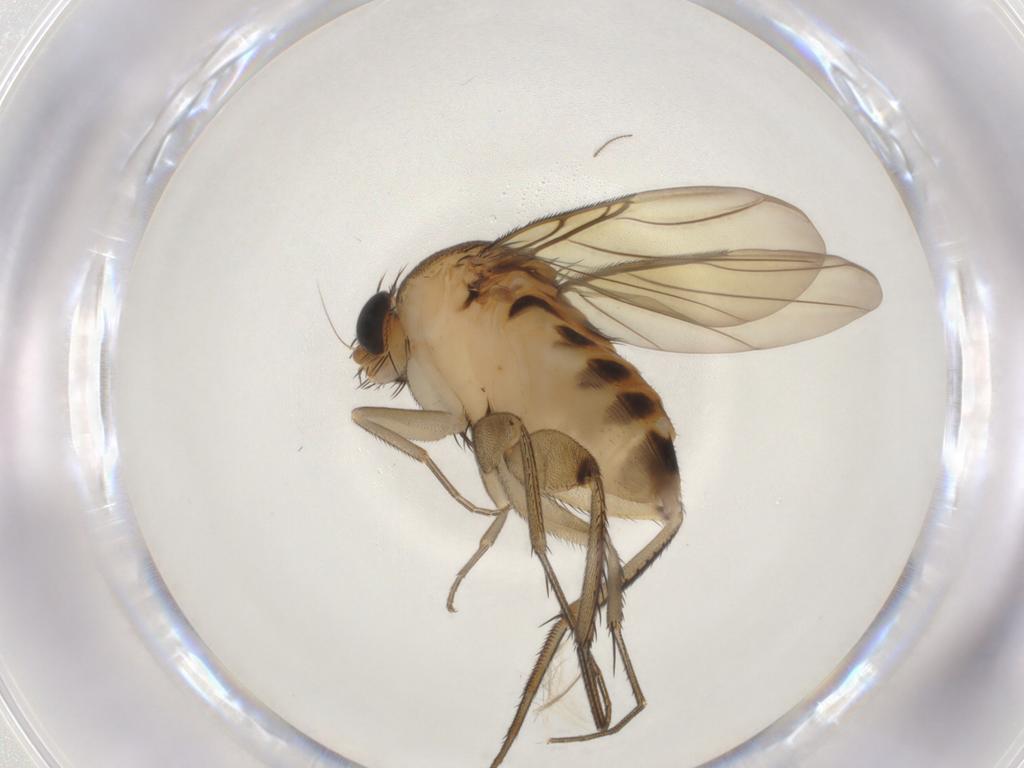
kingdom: Animalia
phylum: Arthropoda
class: Insecta
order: Diptera
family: Phoridae
